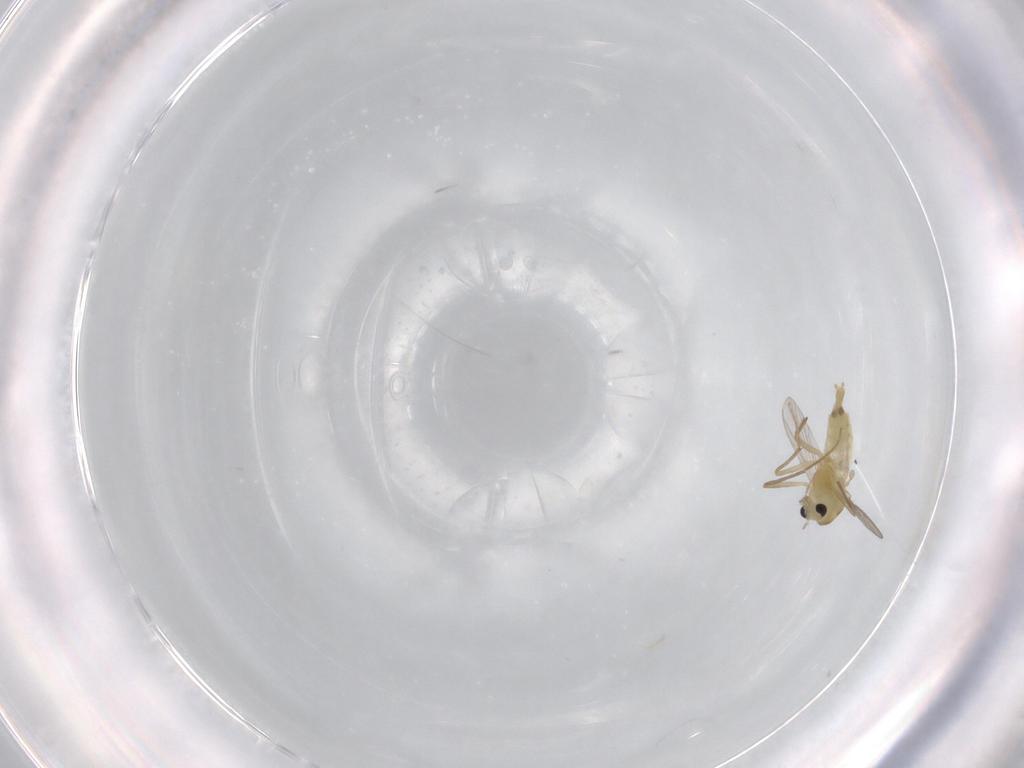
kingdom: Animalia
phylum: Arthropoda
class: Insecta
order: Diptera
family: Chironomidae
